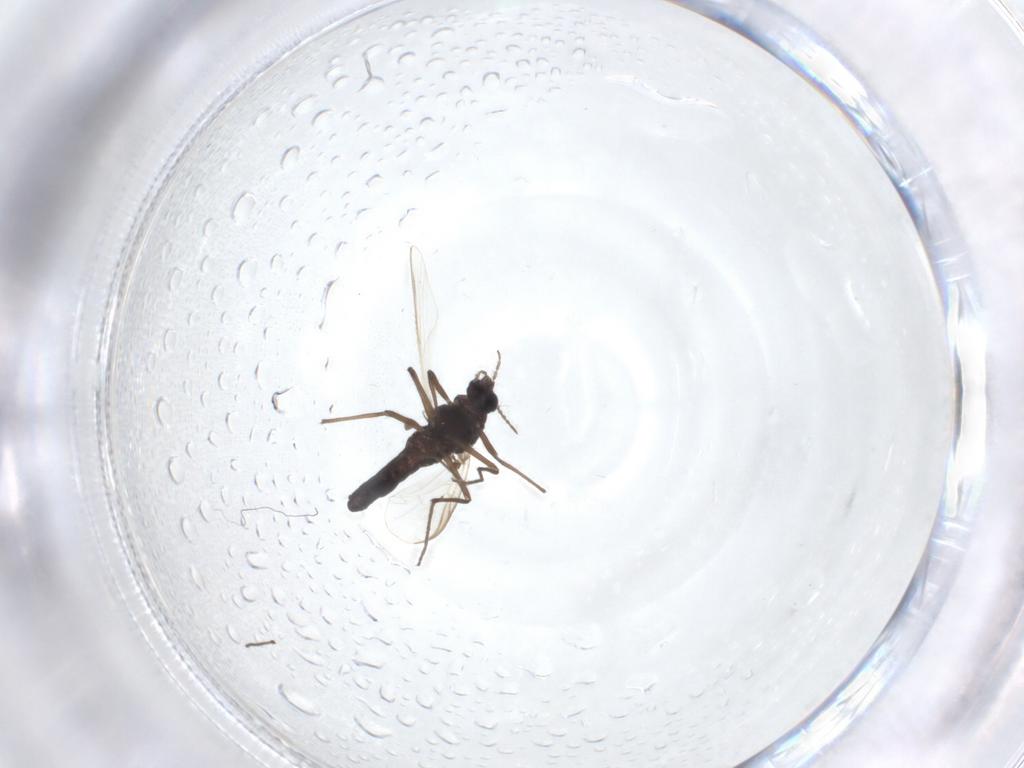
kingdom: Animalia
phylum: Arthropoda
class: Insecta
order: Diptera
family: Chironomidae
